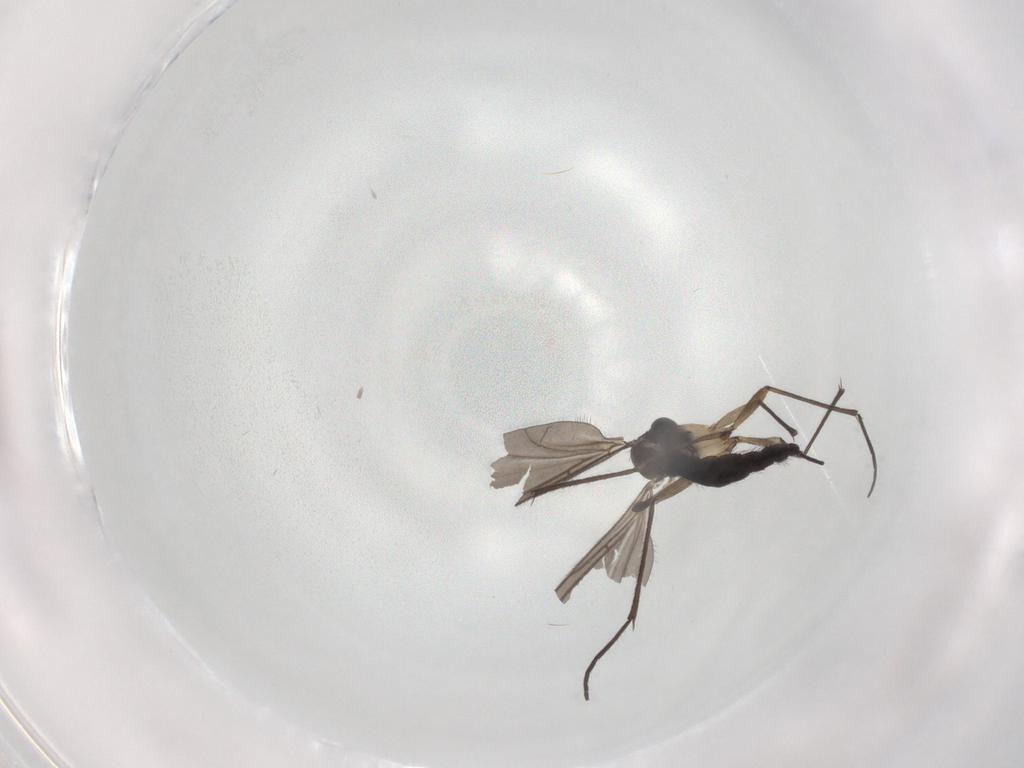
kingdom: Animalia
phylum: Arthropoda
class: Insecta
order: Diptera
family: Sciaridae
